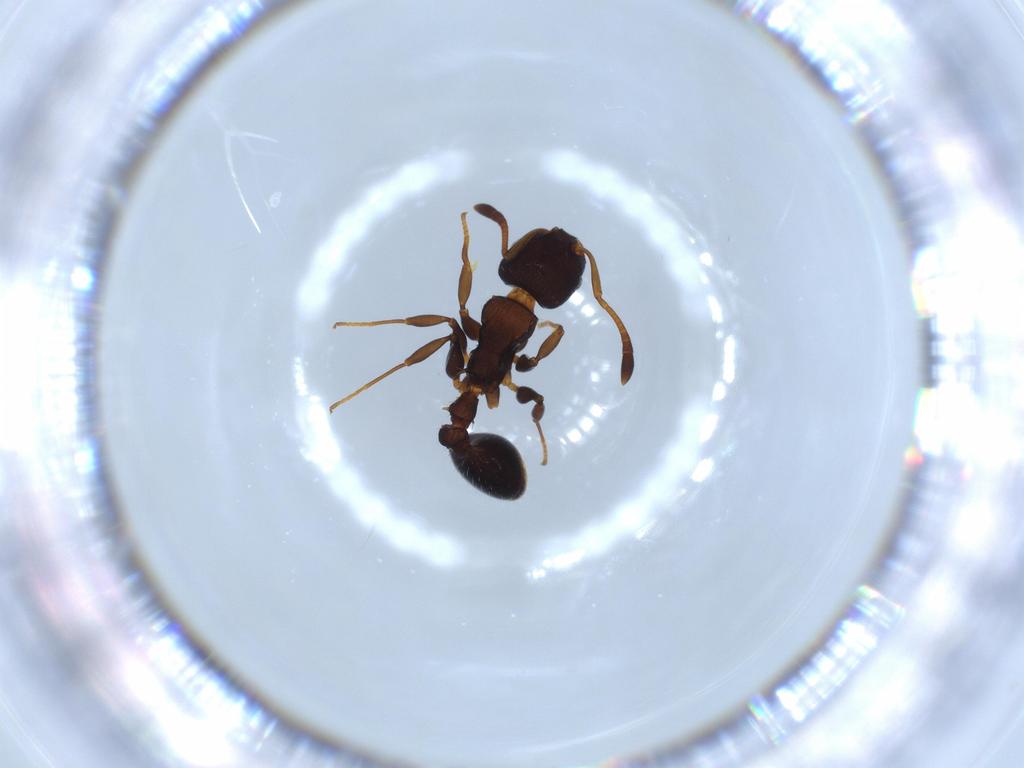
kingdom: Animalia
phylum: Arthropoda
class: Insecta
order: Hymenoptera
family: Formicidae
